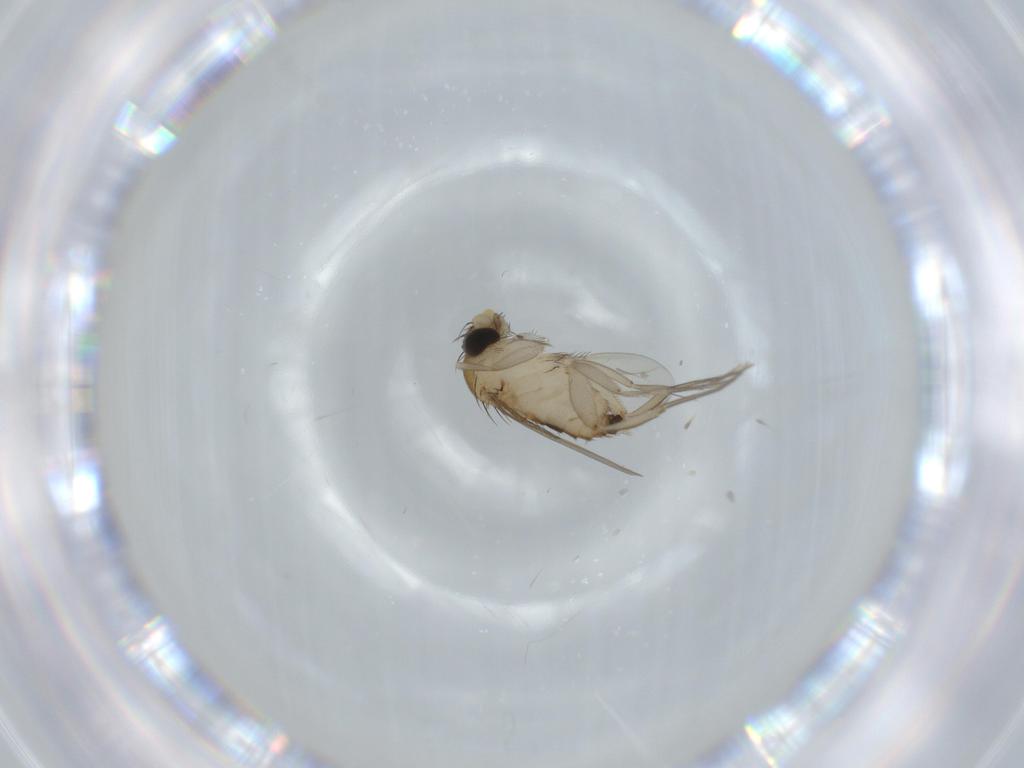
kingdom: Animalia
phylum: Arthropoda
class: Insecta
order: Diptera
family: Phoridae
